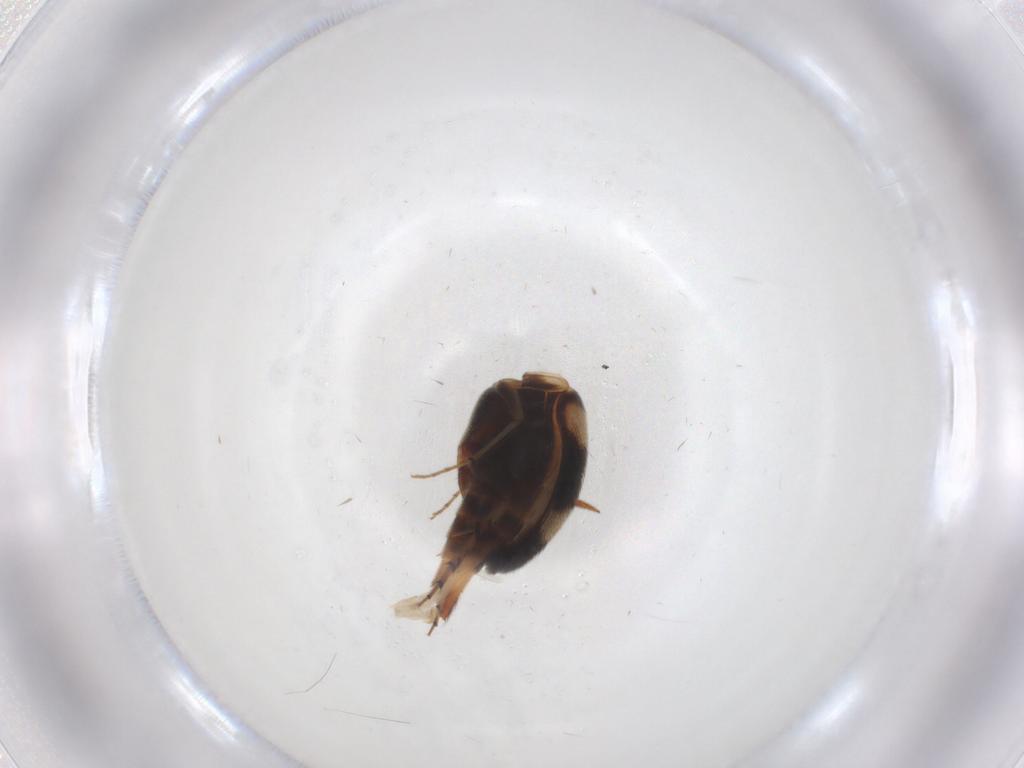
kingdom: Animalia
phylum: Arthropoda
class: Insecta
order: Coleoptera
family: Mordellidae
